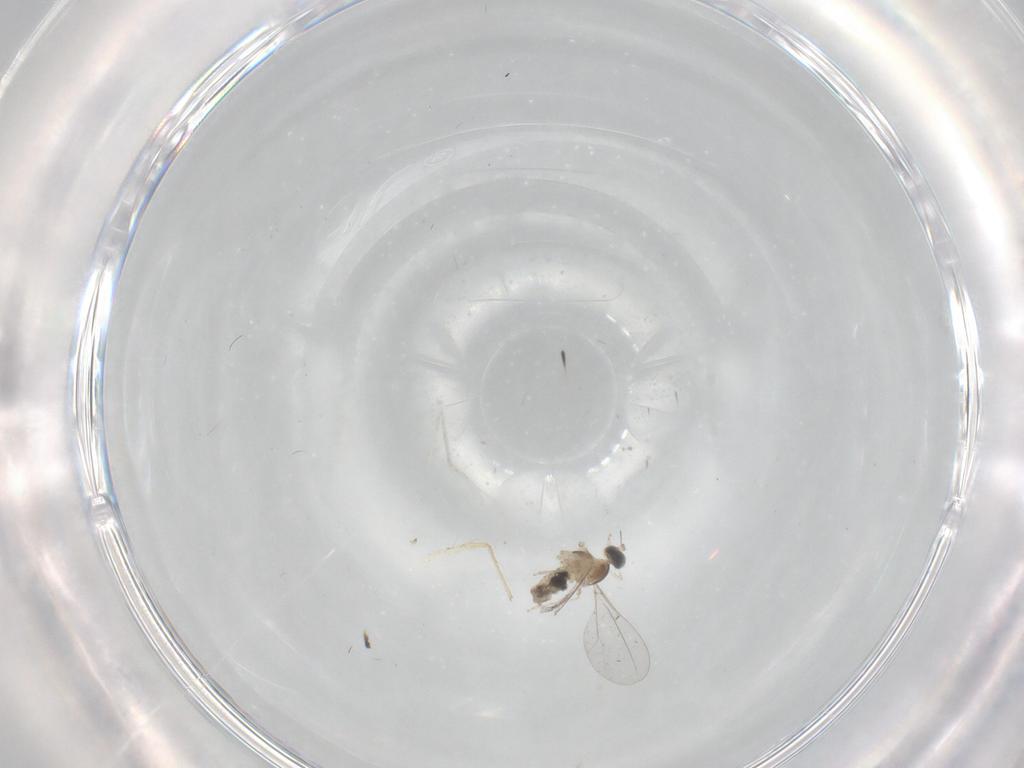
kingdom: Animalia
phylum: Arthropoda
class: Insecta
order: Diptera
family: Cecidomyiidae
